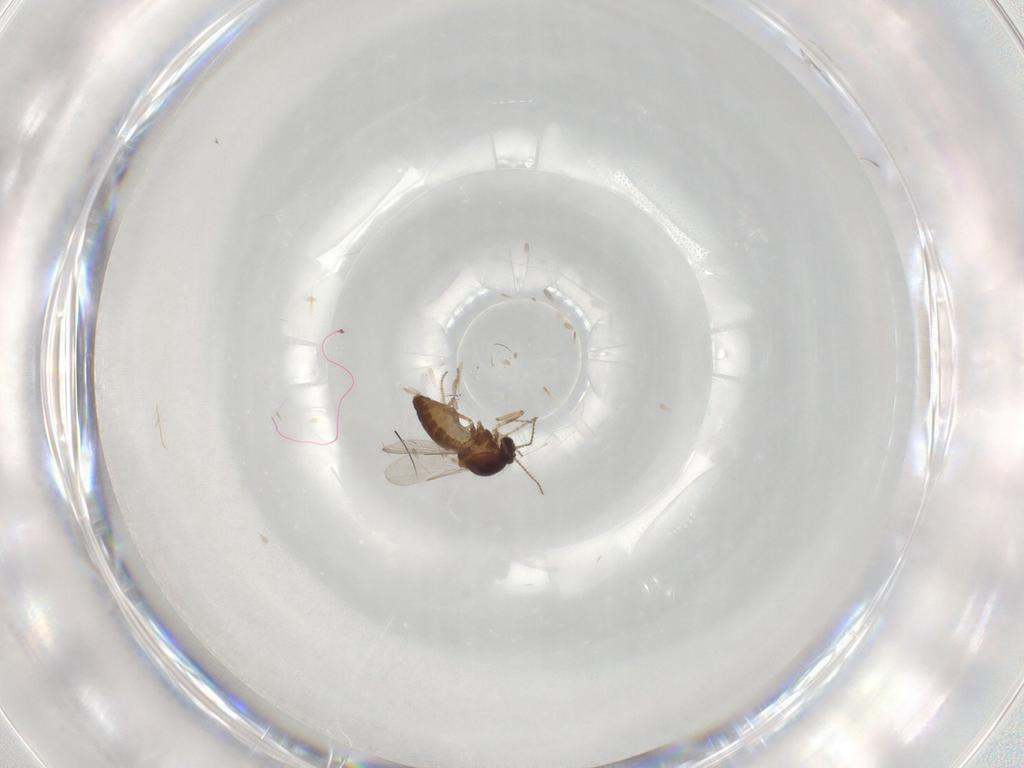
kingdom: Animalia
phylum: Arthropoda
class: Insecta
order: Diptera
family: Ceratopogonidae
